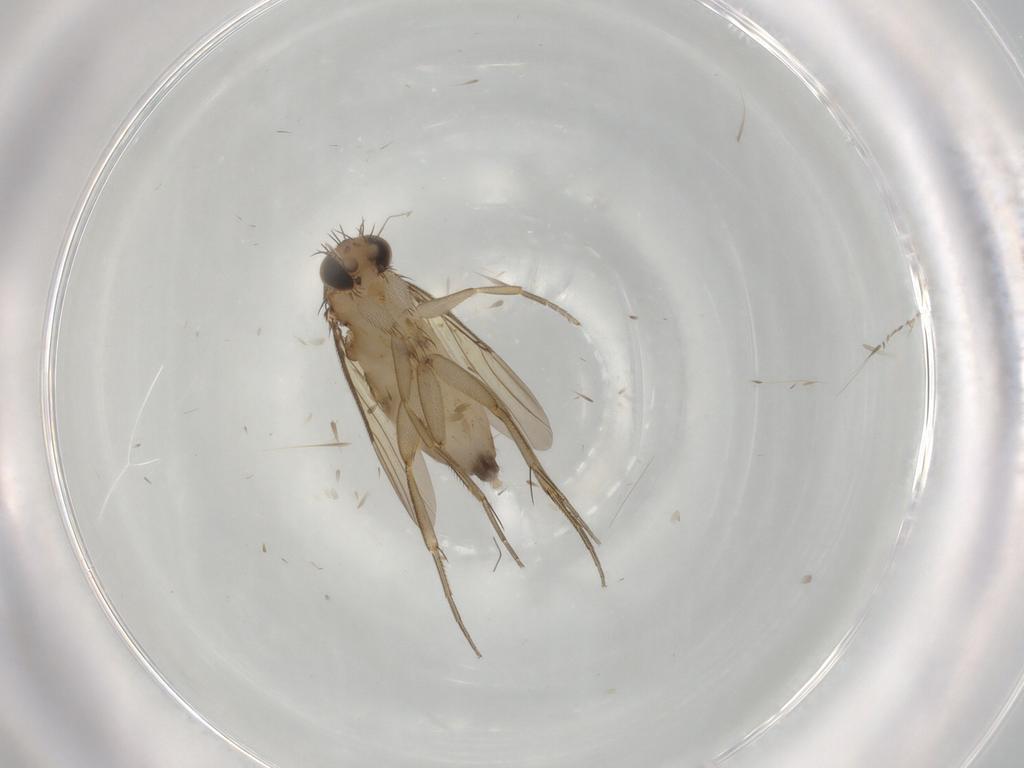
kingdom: Animalia
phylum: Arthropoda
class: Insecta
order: Diptera
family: Phoridae
